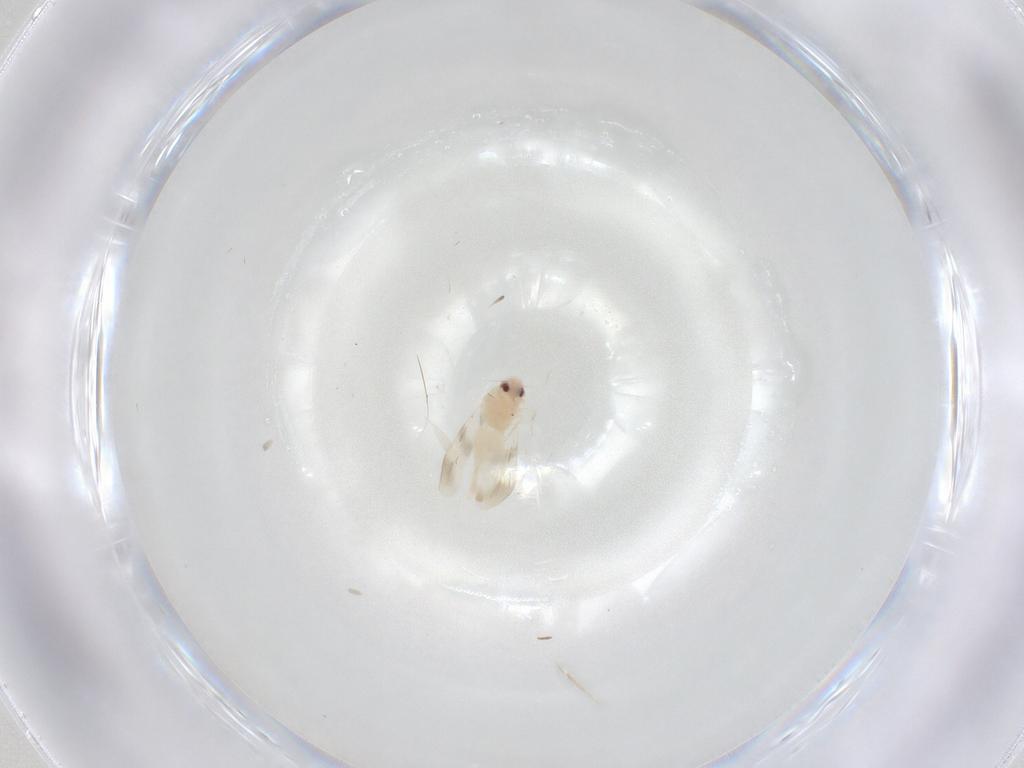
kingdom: Animalia
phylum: Arthropoda
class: Insecta
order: Hemiptera
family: Aleyrodidae
